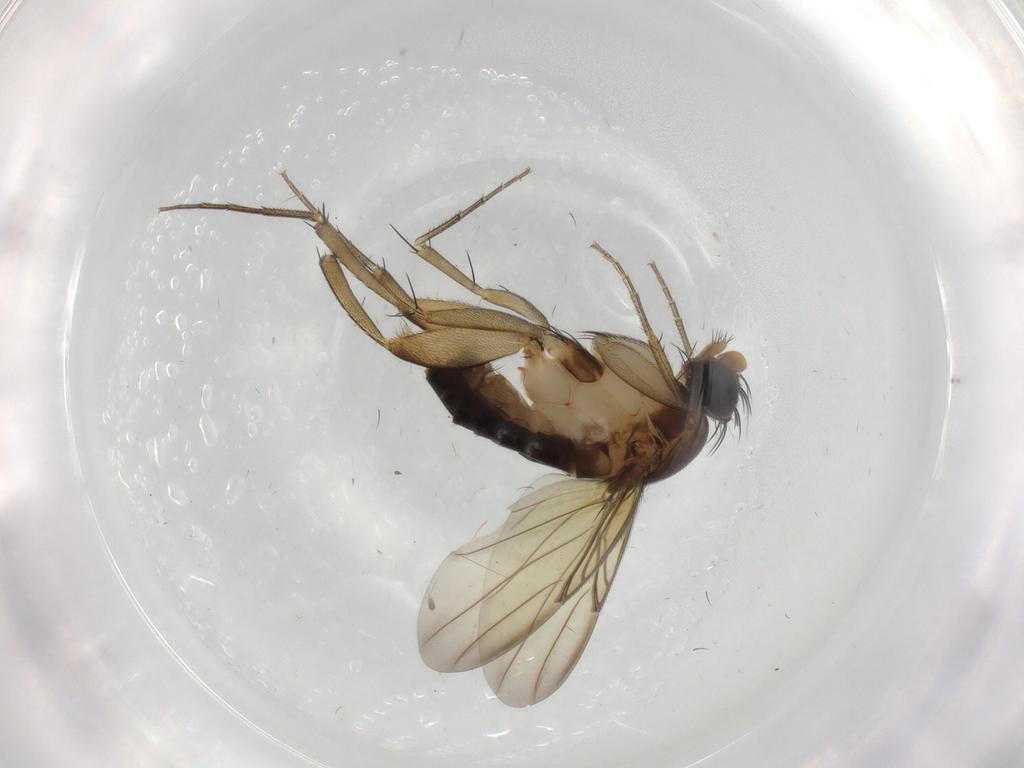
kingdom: Animalia
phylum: Arthropoda
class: Insecta
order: Diptera
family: Phoridae
